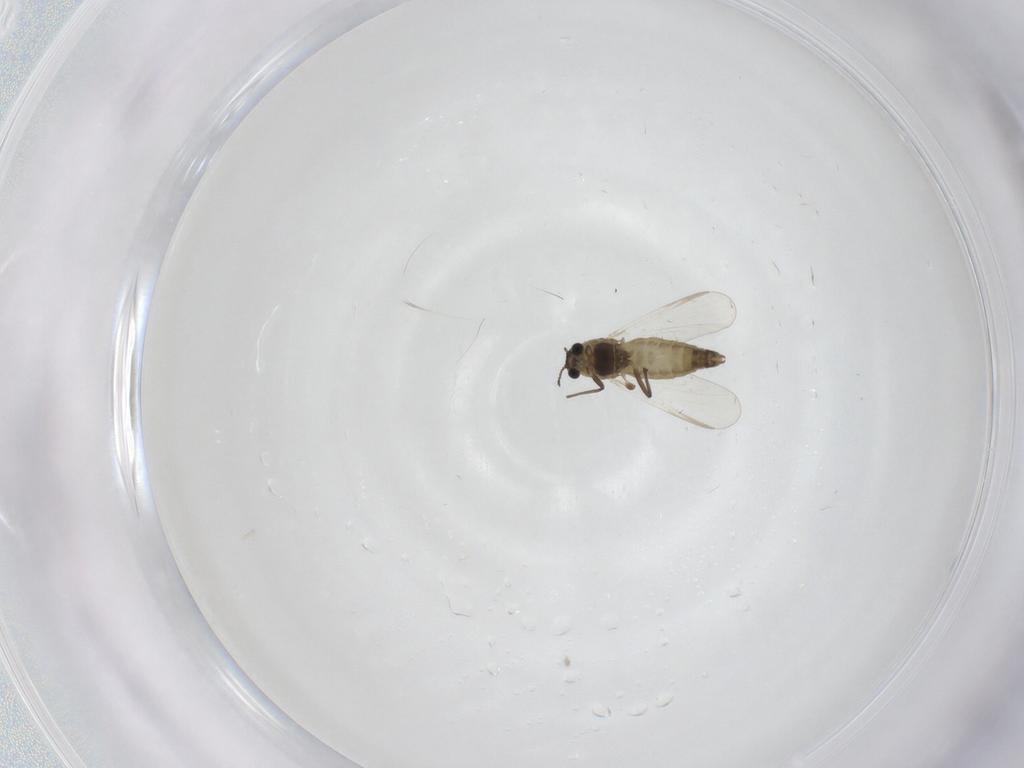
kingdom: Animalia
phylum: Arthropoda
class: Insecta
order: Diptera
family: Chironomidae
